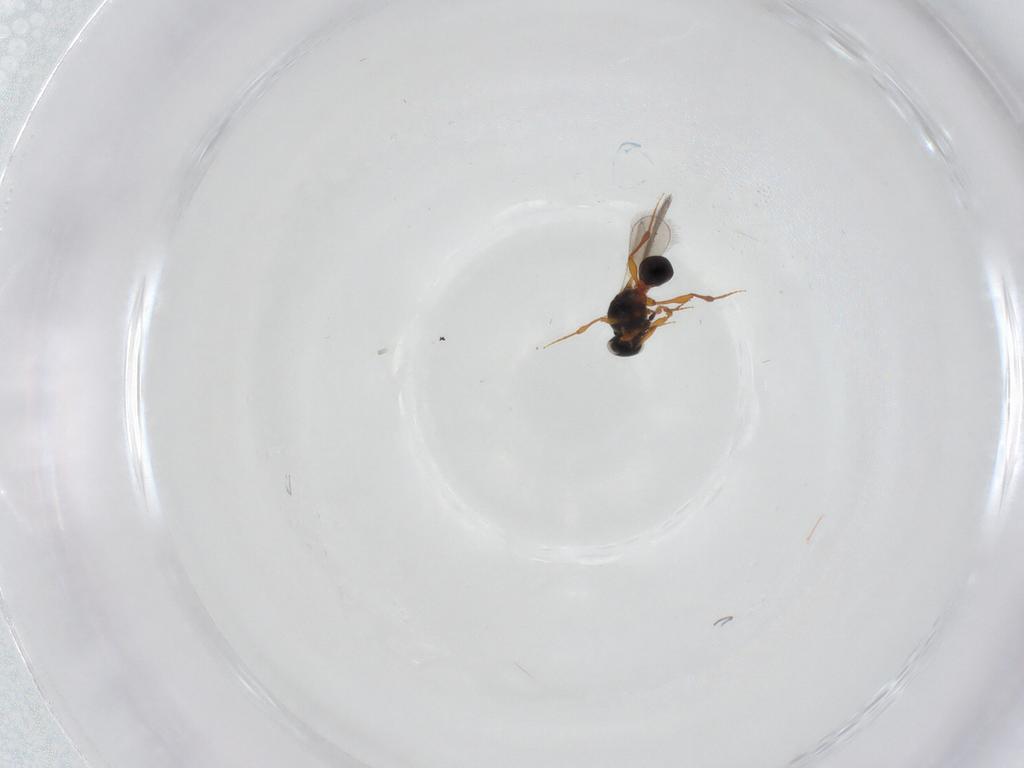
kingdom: Animalia
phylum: Arthropoda
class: Insecta
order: Hymenoptera
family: Platygastridae
